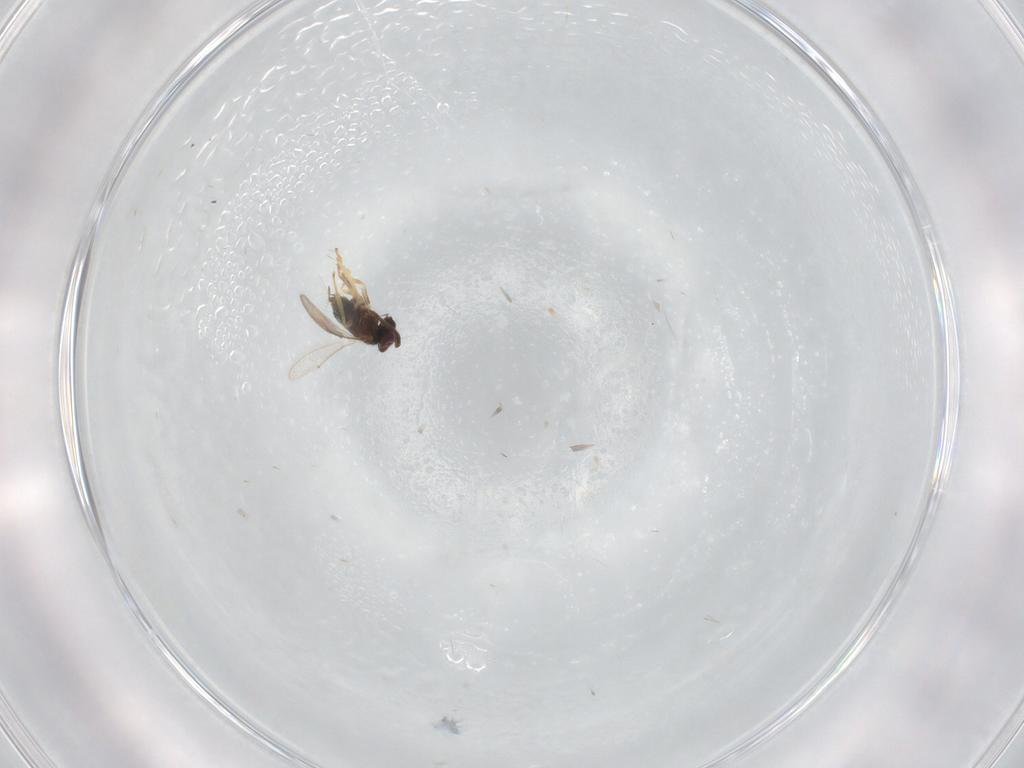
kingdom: Animalia
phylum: Arthropoda
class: Insecta
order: Hymenoptera
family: Aphelinidae
